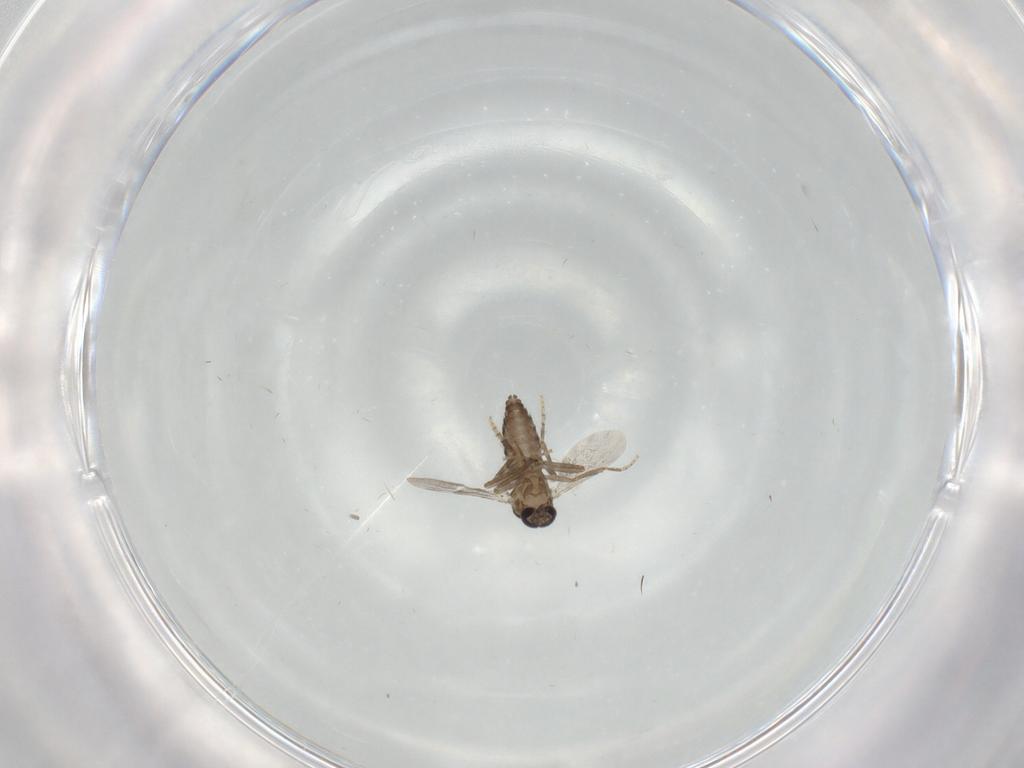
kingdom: Animalia
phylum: Arthropoda
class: Insecta
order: Diptera
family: Ceratopogonidae
